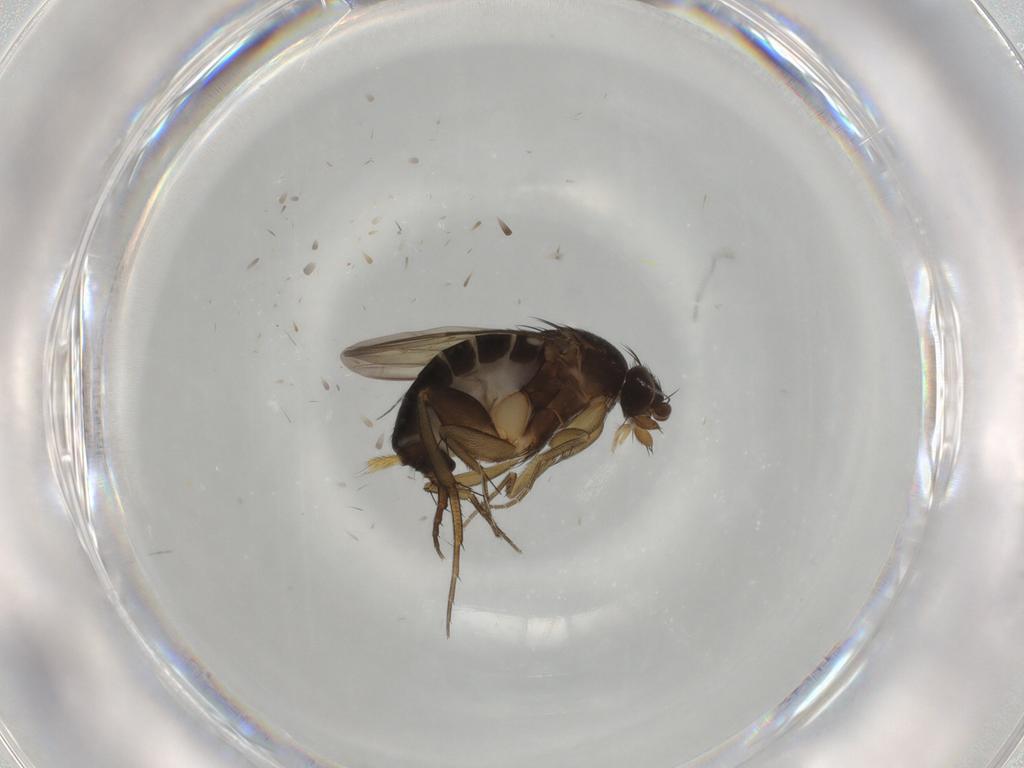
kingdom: Animalia
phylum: Arthropoda
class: Insecta
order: Diptera
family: Phoridae
